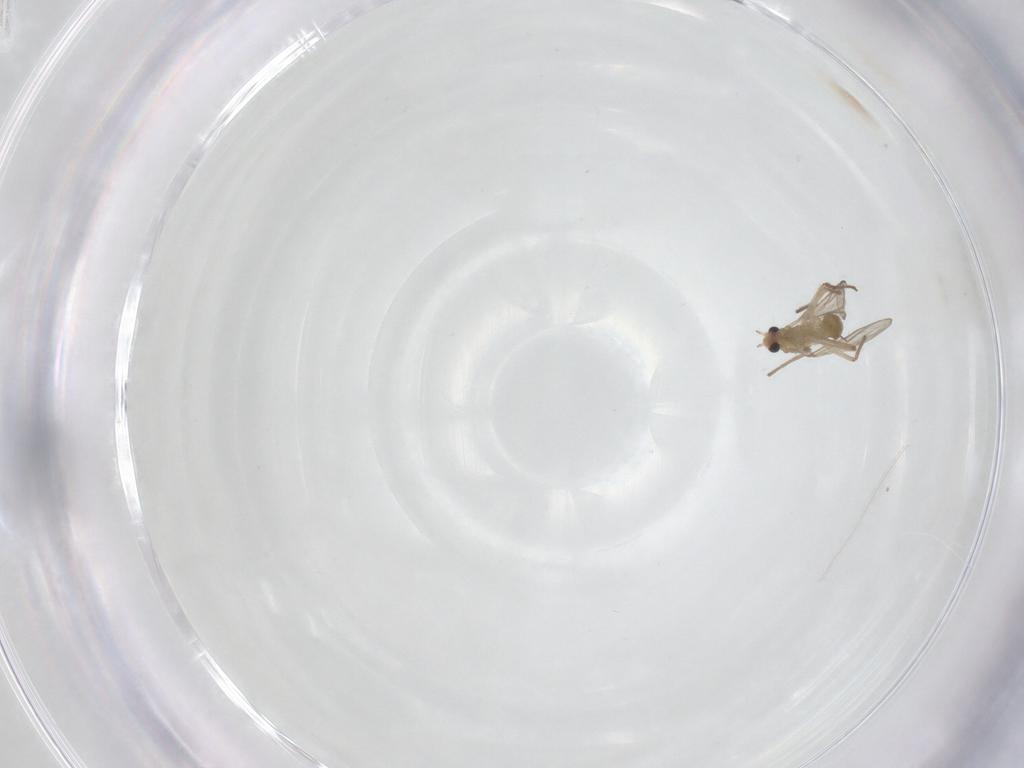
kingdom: Animalia
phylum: Arthropoda
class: Insecta
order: Diptera
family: Chironomidae
